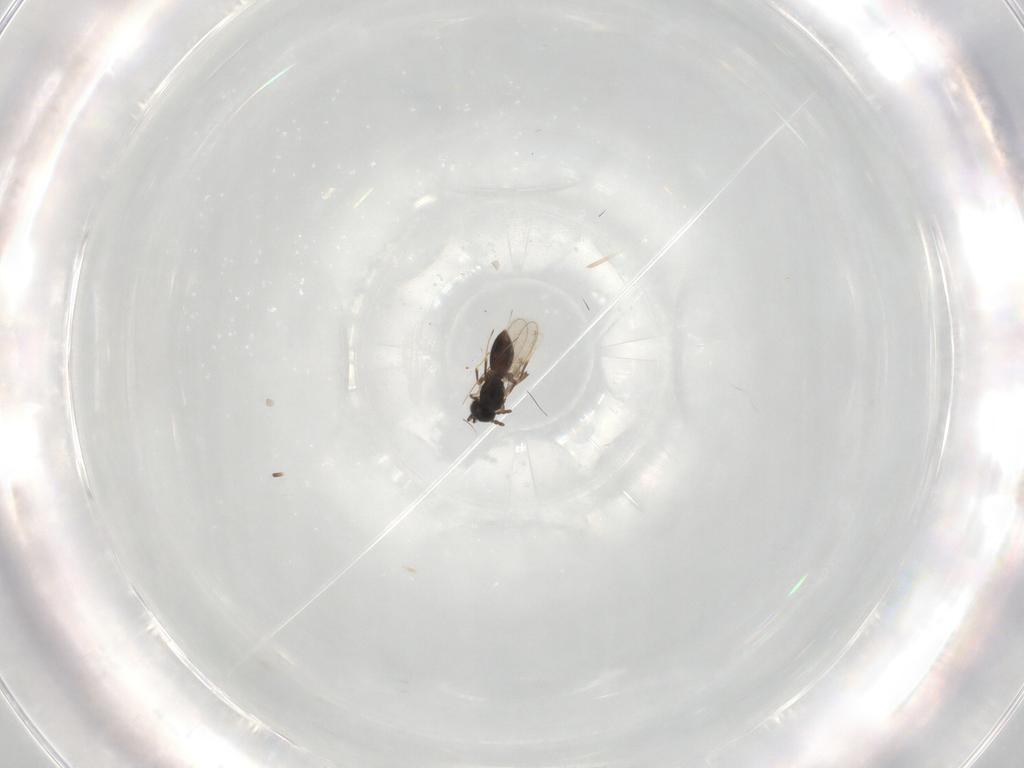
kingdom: Animalia
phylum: Arthropoda
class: Insecta
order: Hymenoptera
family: Scelionidae
